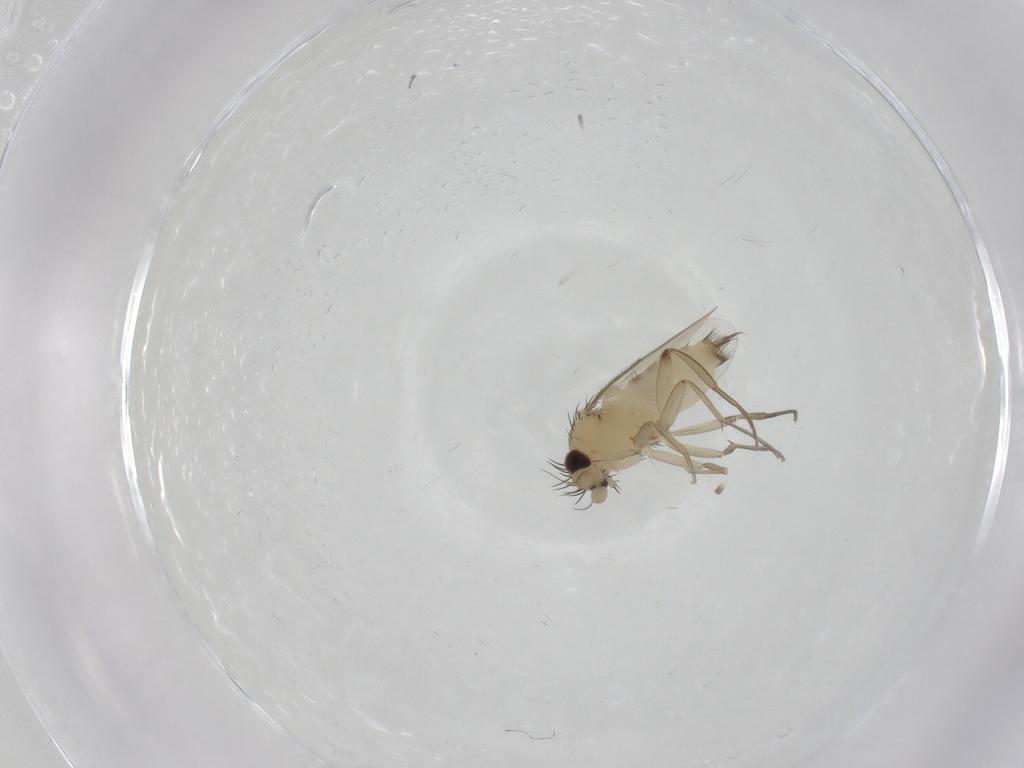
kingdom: Animalia
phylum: Arthropoda
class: Insecta
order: Diptera
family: Phoridae
